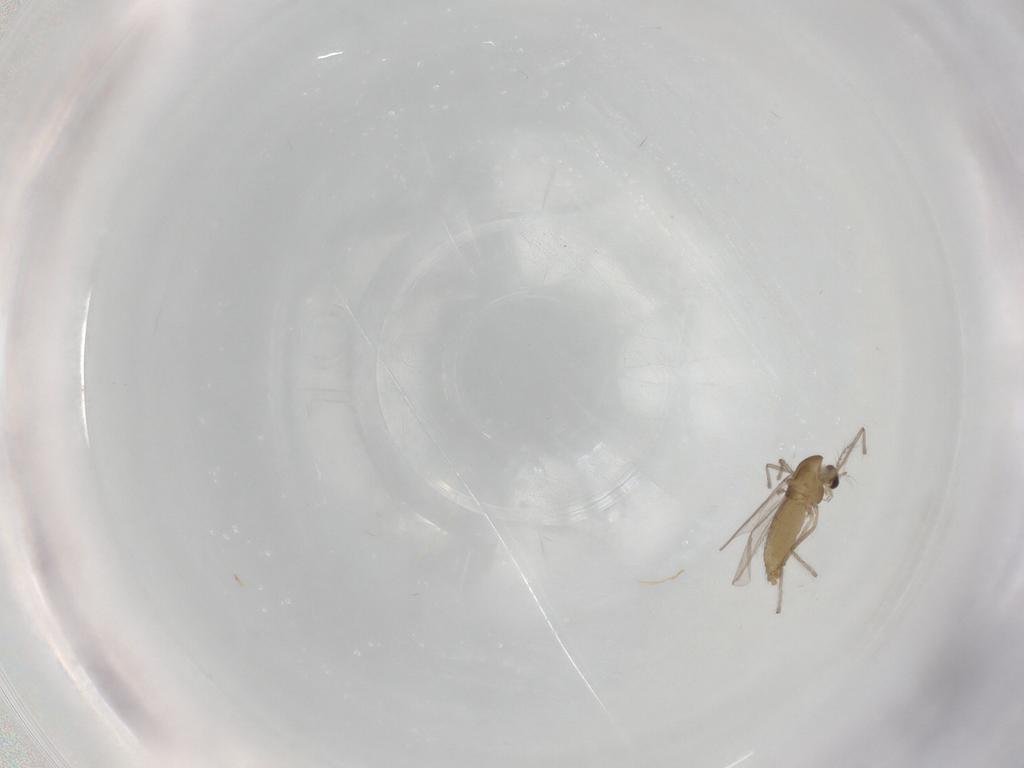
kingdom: Animalia
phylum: Arthropoda
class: Insecta
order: Diptera
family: Chironomidae
